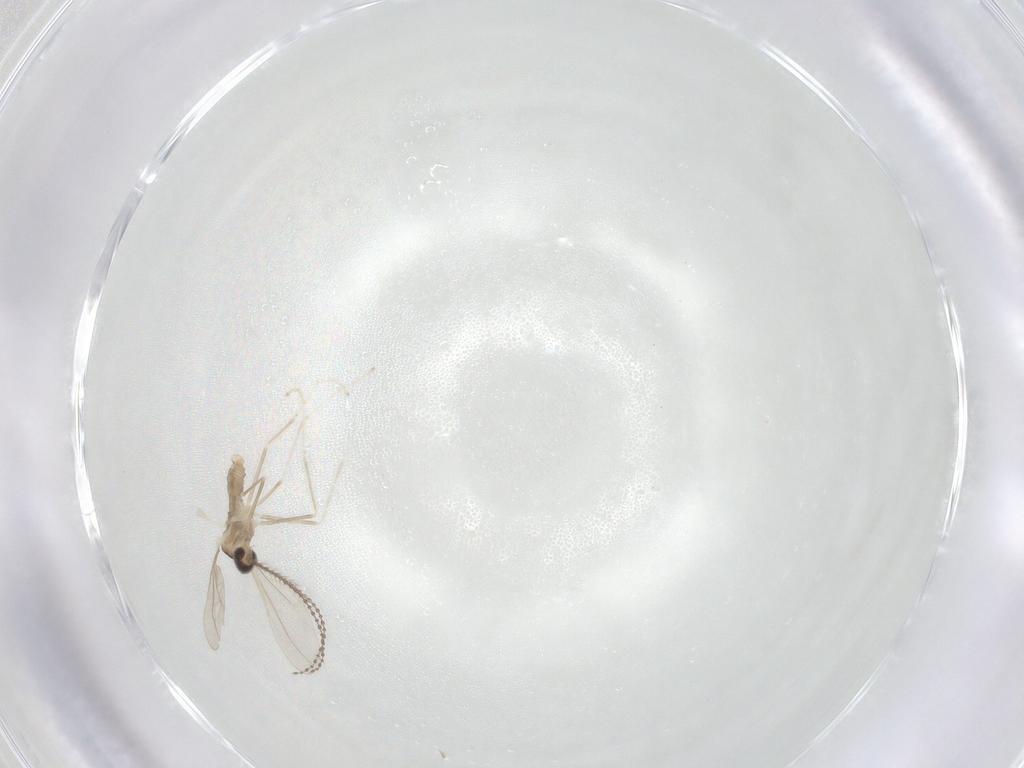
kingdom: Animalia
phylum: Arthropoda
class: Insecta
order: Diptera
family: Cecidomyiidae
